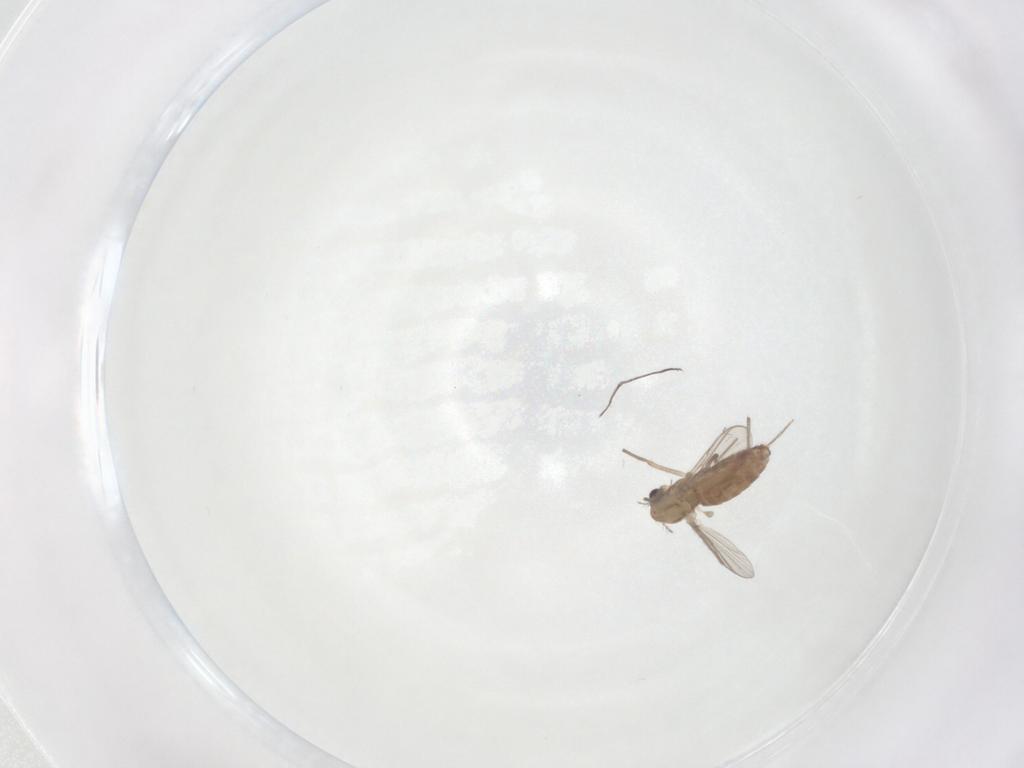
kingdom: Animalia
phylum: Arthropoda
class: Insecta
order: Diptera
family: Chironomidae
